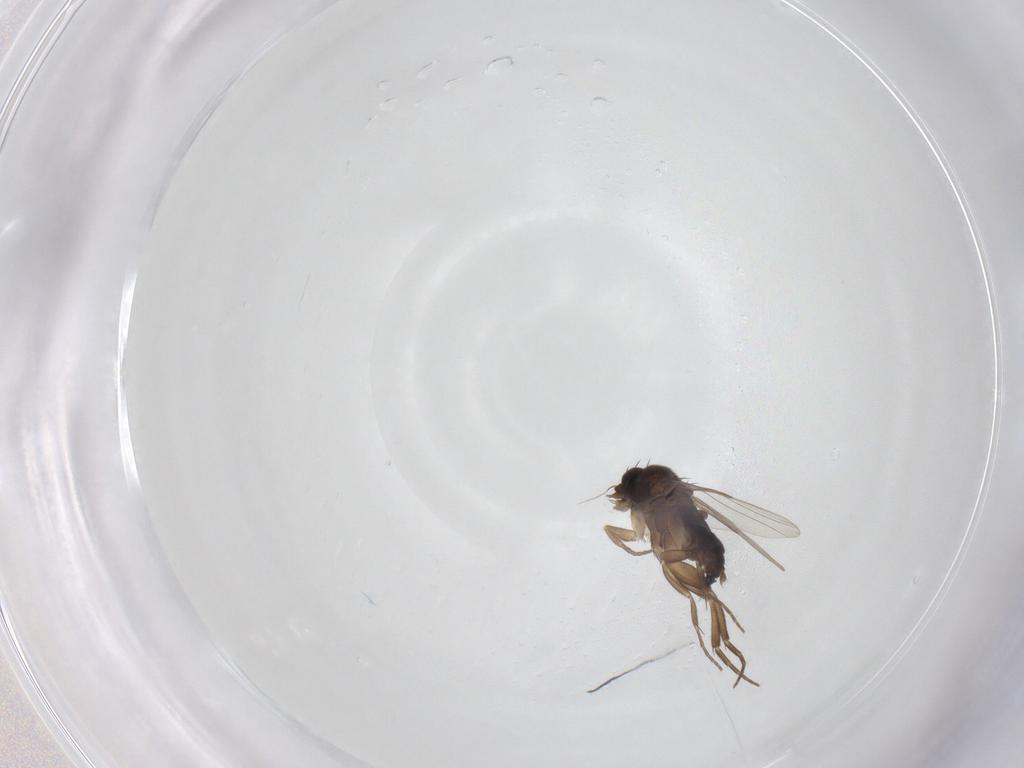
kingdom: Animalia
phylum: Arthropoda
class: Insecta
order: Diptera
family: Phoridae
